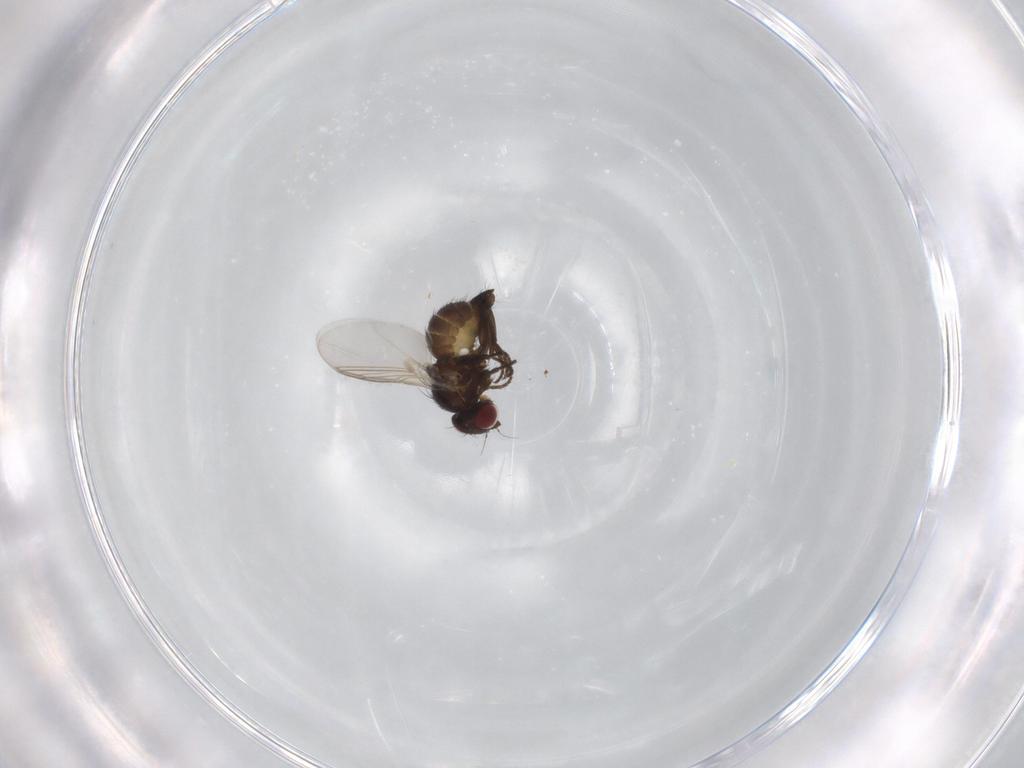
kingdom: Animalia
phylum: Arthropoda
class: Insecta
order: Diptera
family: Muscidae
